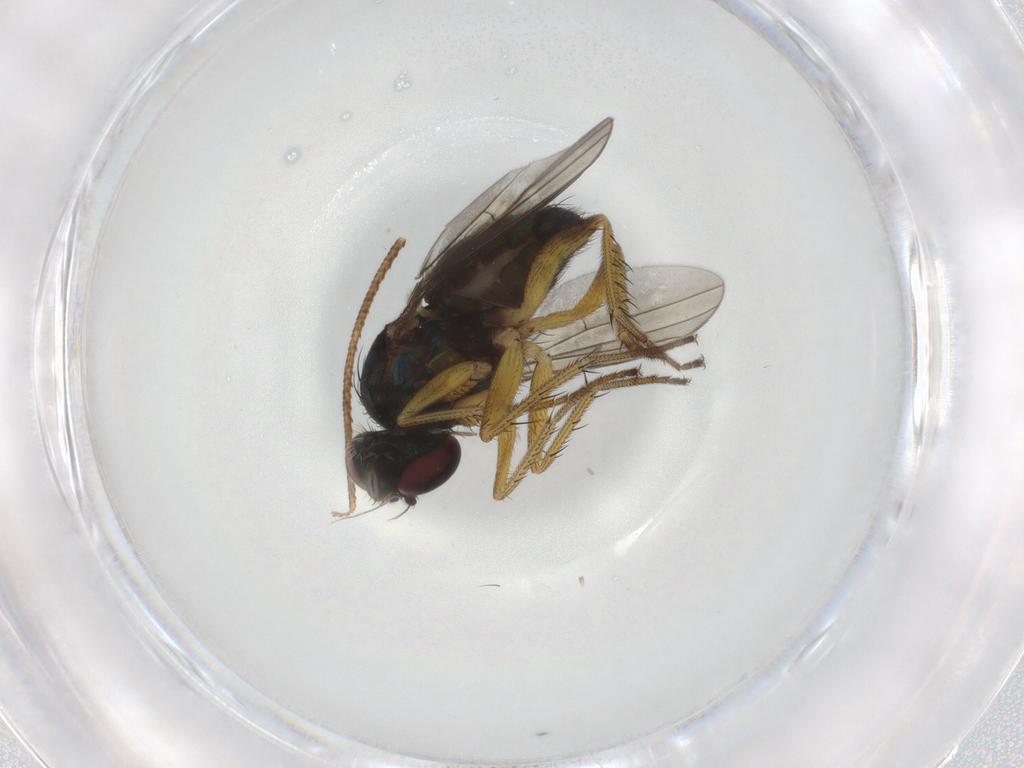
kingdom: Animalia
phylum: Arthropoda
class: Insecta
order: Diptera
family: Dolichopodidae
